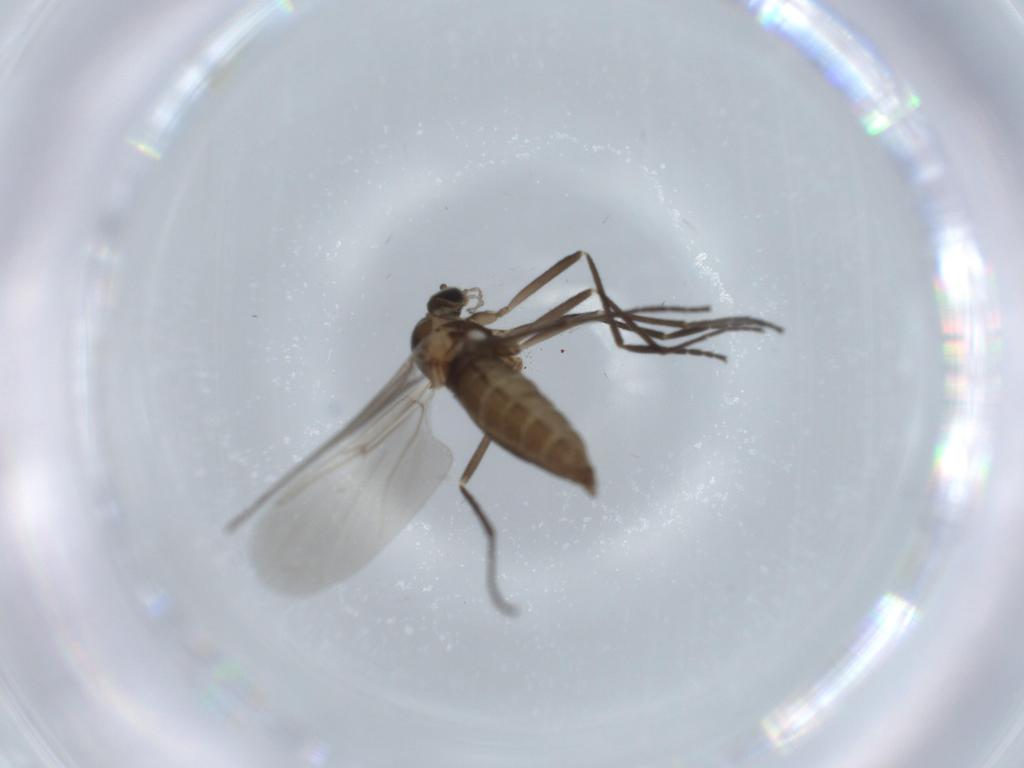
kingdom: Animalia
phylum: Arthropoda
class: Insecta
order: Diptera
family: Cecidomyiidae
